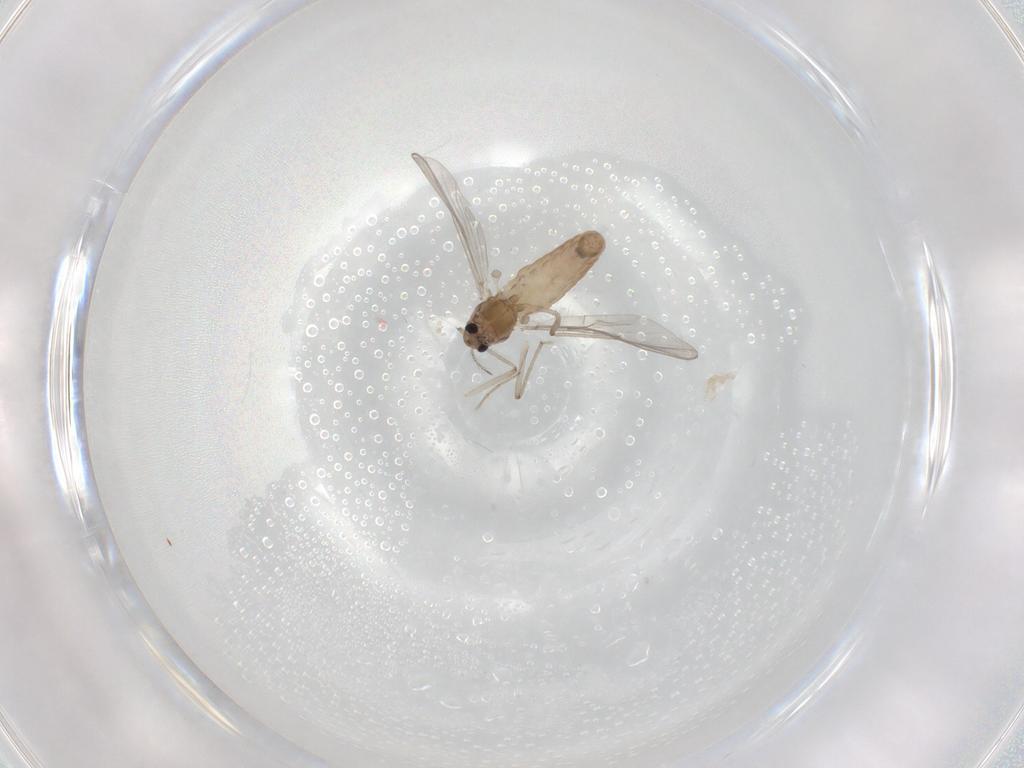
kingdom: Animalia
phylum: Arthropoda
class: Insecta
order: Diptera
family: Chironomidae
